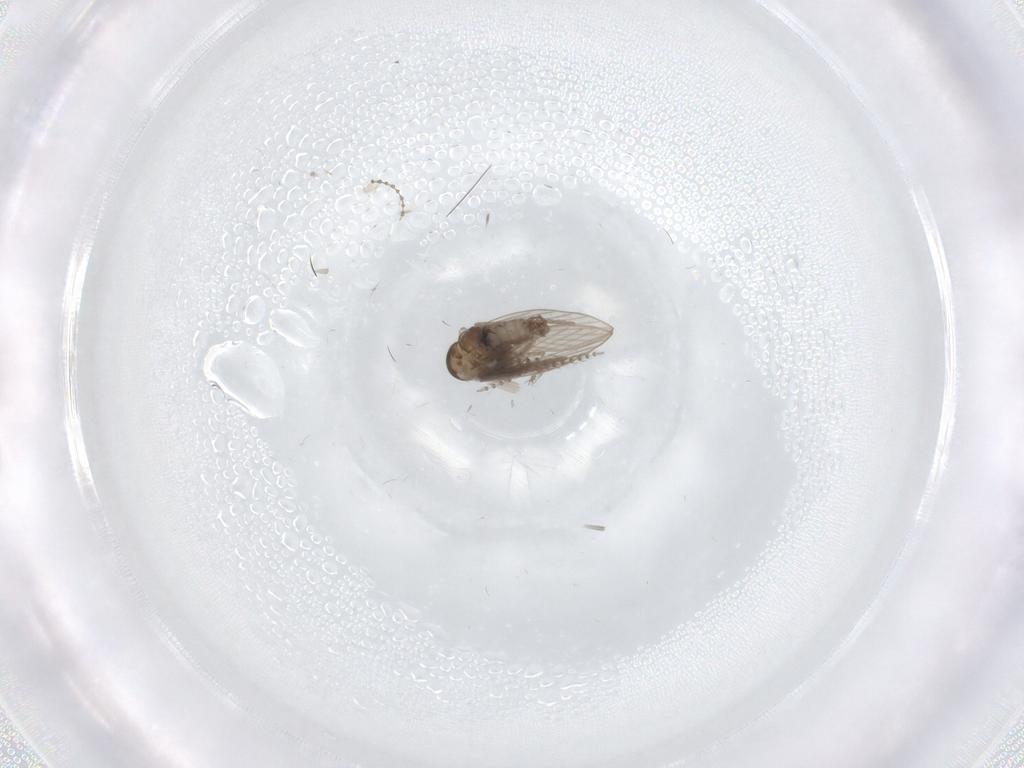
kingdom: Animalia
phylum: Arthropoda
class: Insecta
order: Diptera
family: Psychodidae
